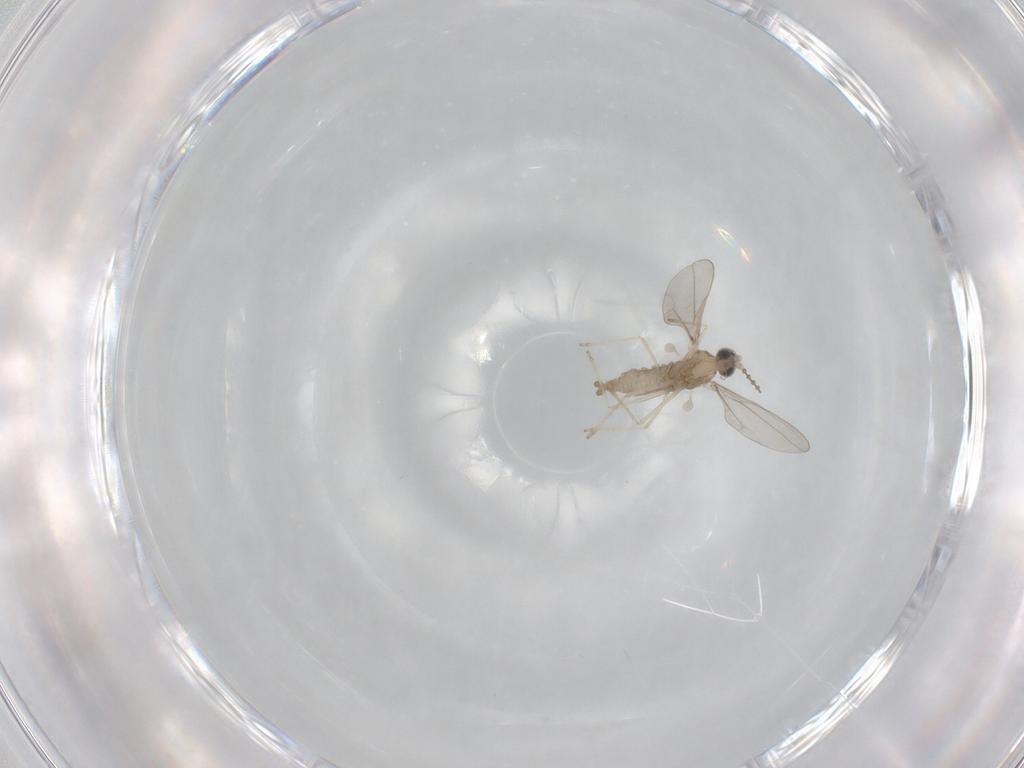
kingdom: Animalia
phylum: Arthropoda
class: Insecta
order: Diptera
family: Cecidomyiidae
